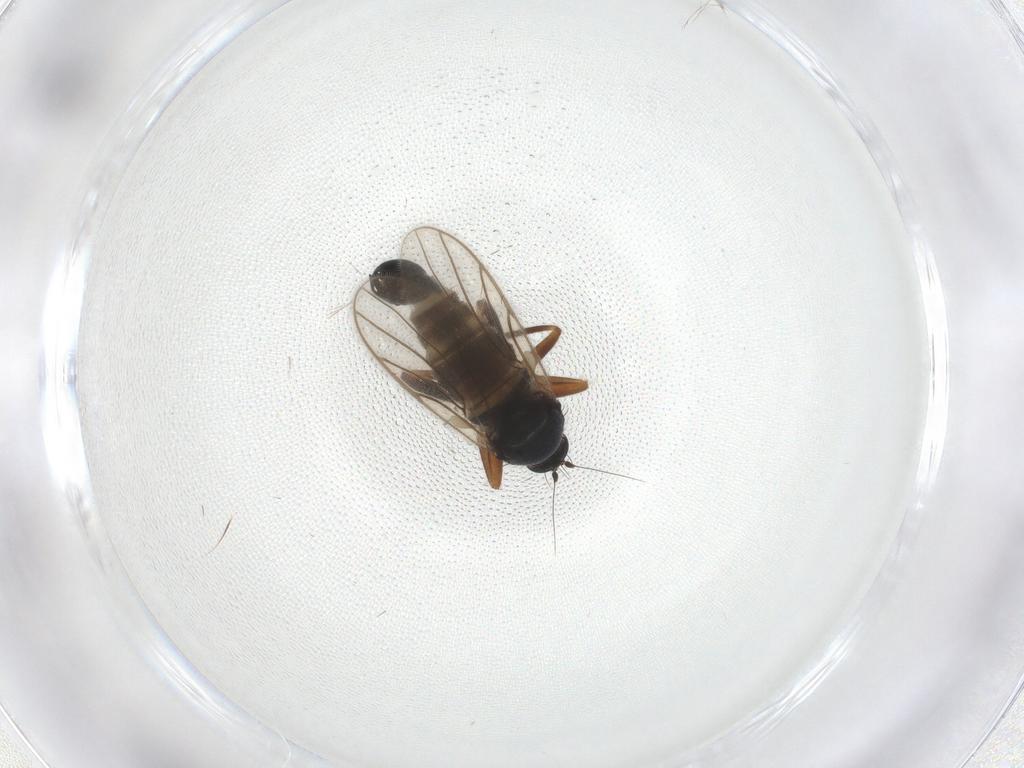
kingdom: Animalia
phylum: Arthropoda
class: Insecta
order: Diptera
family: Hybotidae
